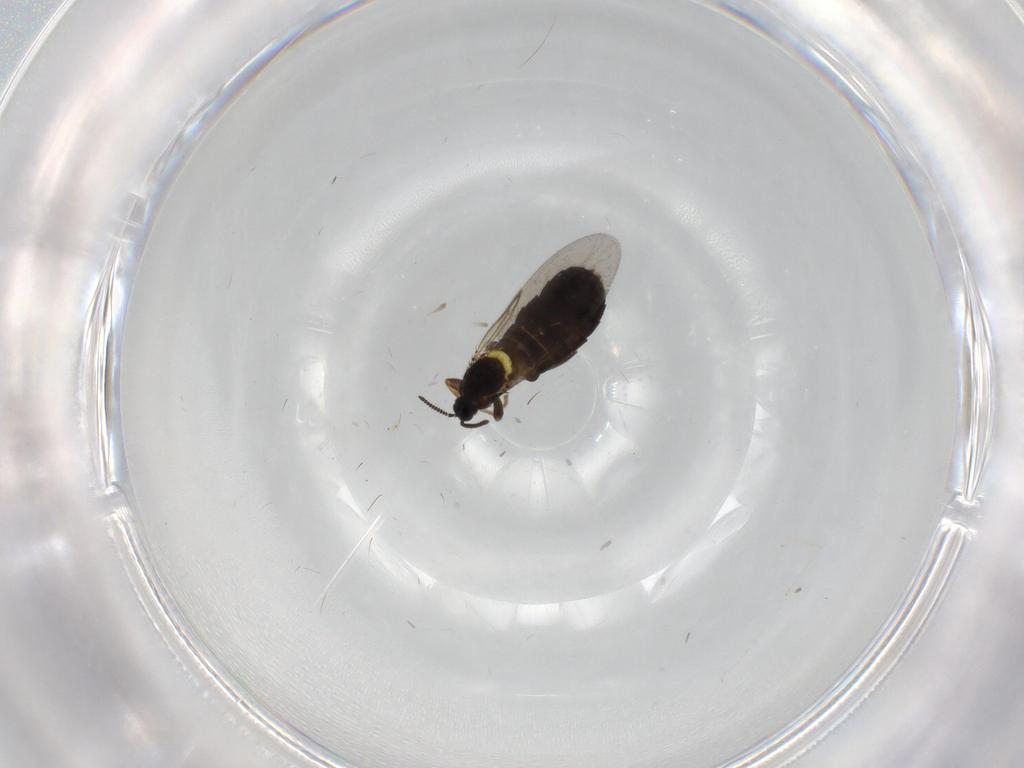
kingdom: Animalia
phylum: Arthropoda
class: Insecta
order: Diptera
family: Scatopsidae
